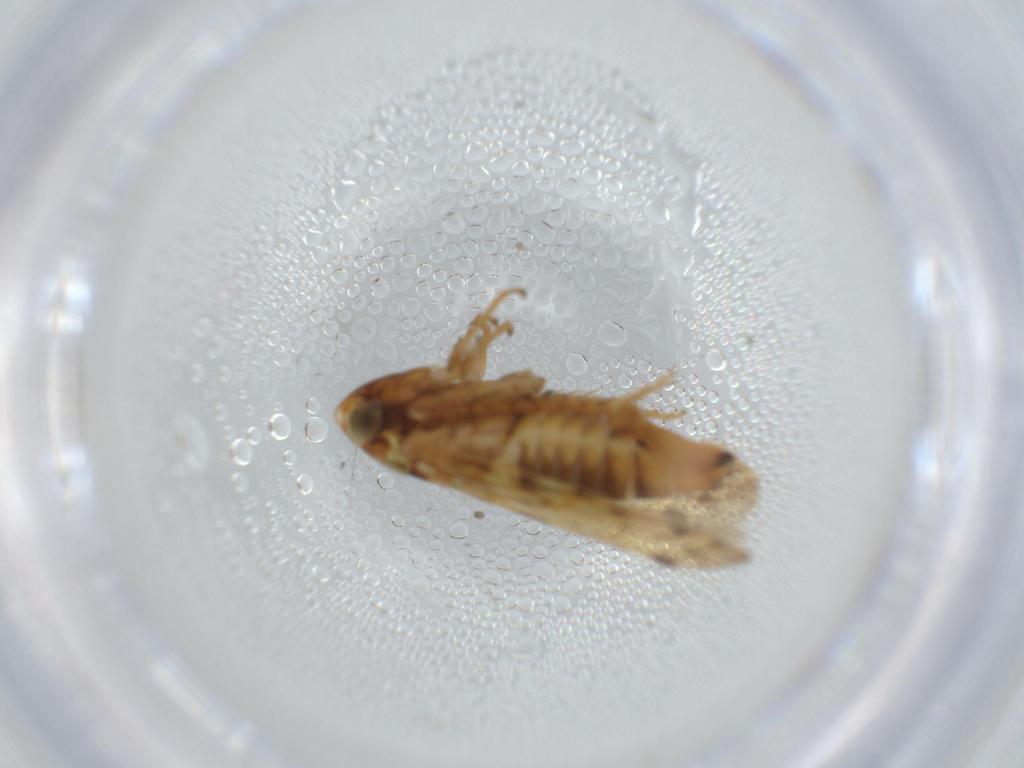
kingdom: Animalia
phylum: Arthropoda
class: Insecta
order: Hemiptera
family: Cicadellidae
